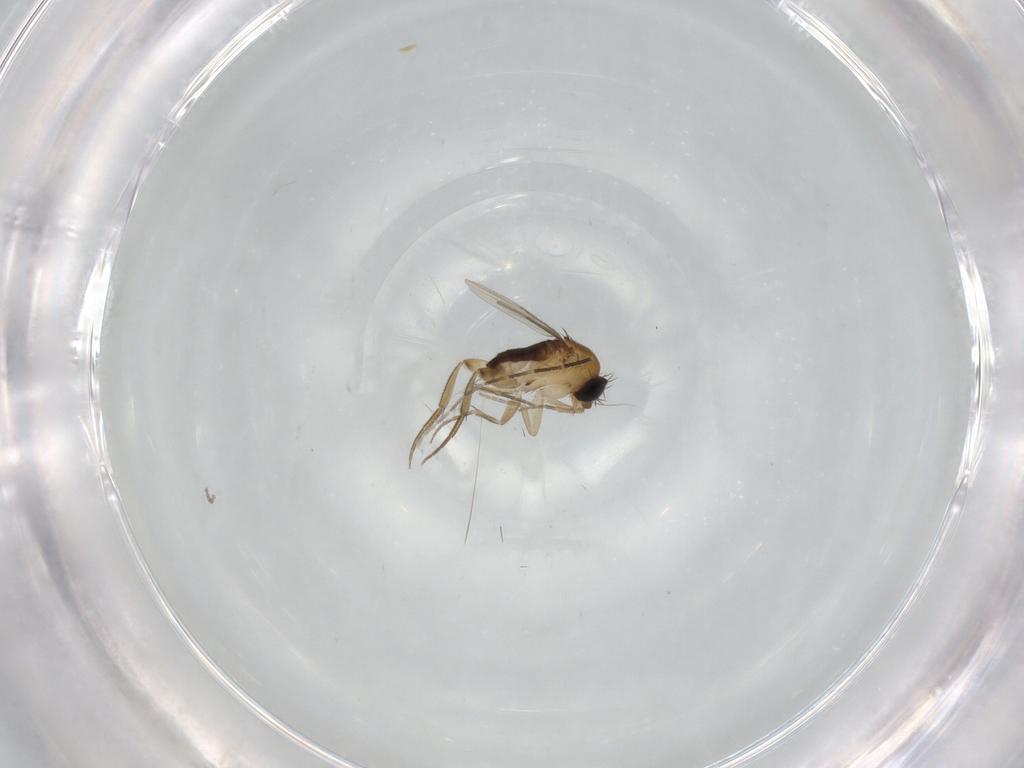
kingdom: Animalia
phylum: Arthropoda
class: Insecta
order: Diptera
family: Phoridae
